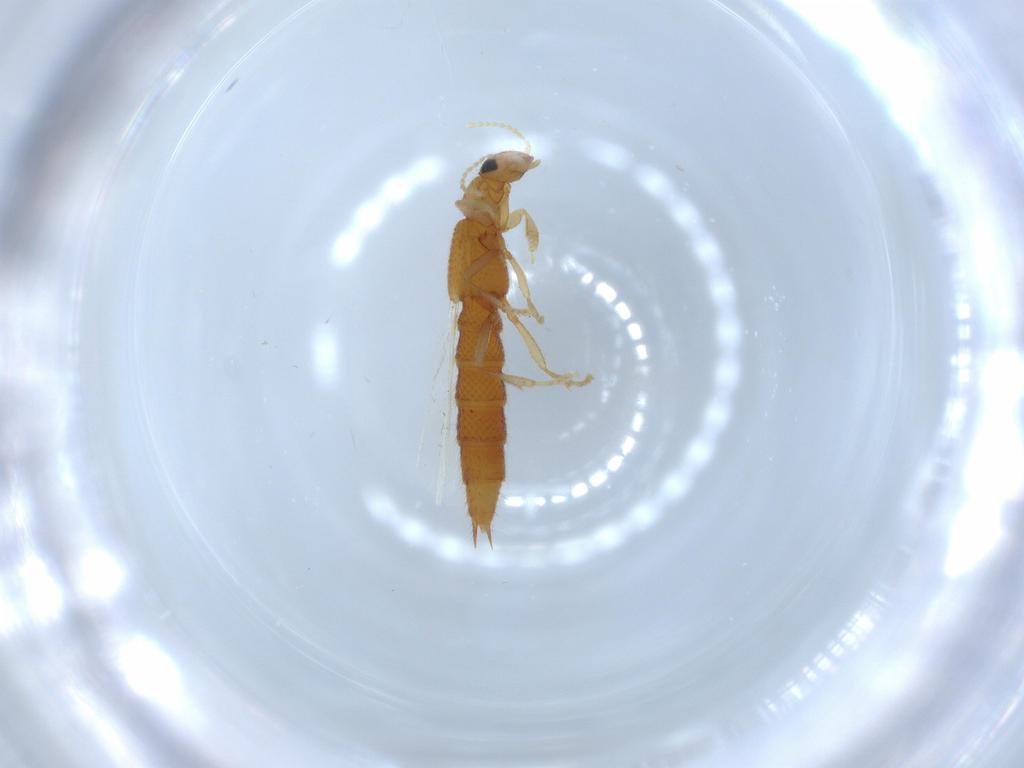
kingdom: Animalia
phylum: Arthropoda
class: Insecta
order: Coleoptera
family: Staphylinidae
